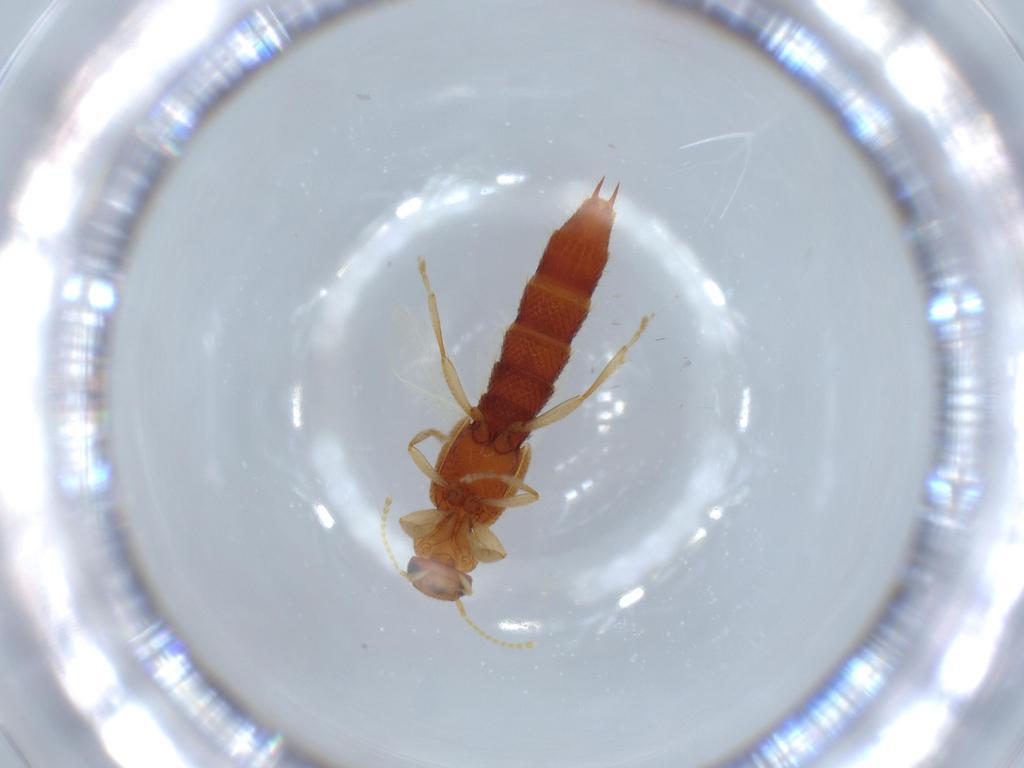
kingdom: Animalia
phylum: Arthropoda
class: Insecta
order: Coleoptera
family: Staphylinidae
